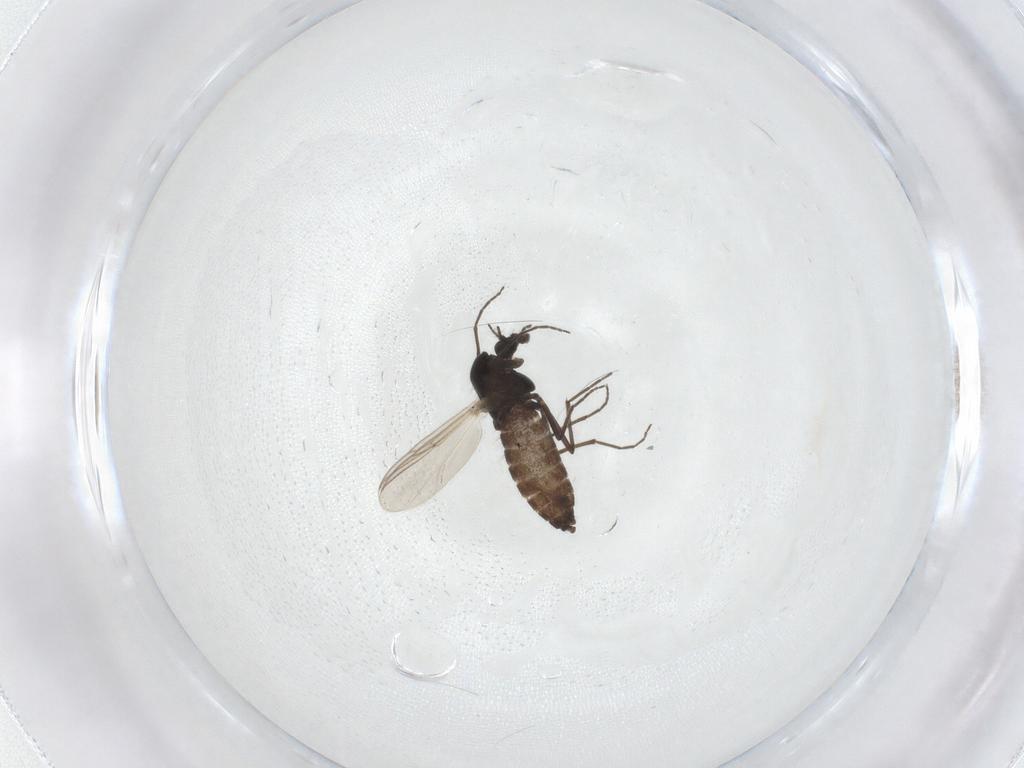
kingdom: Animalia
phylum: Arthropoda
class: Insecta
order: Diptera
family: Chironomidae
